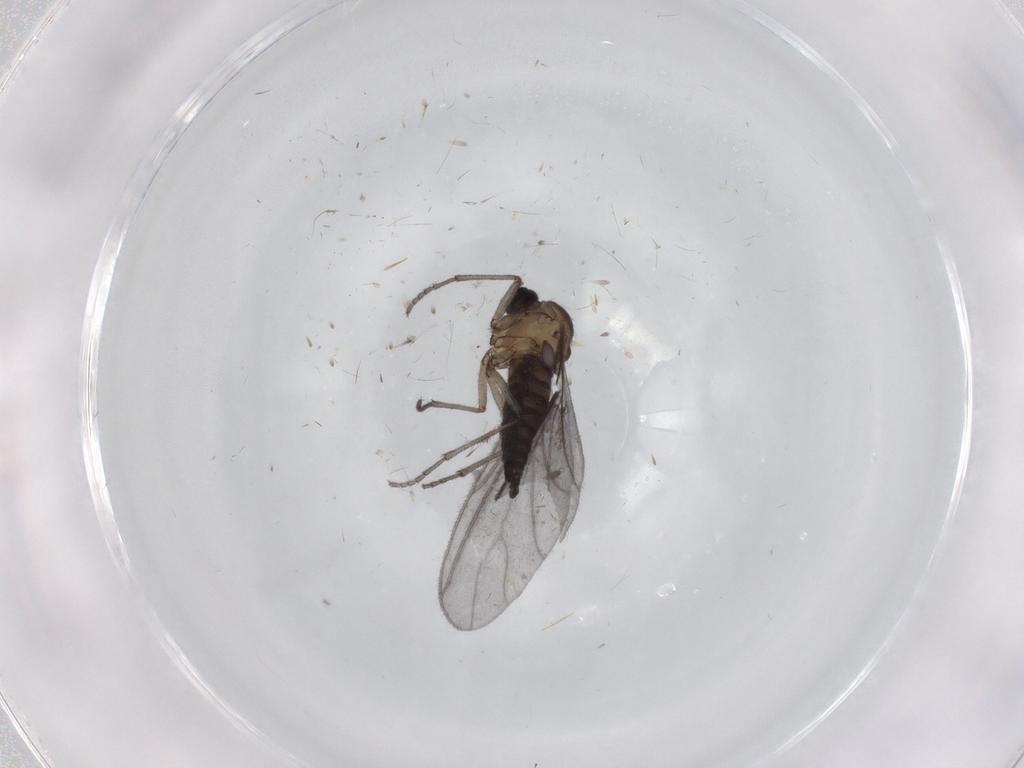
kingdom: Animalia
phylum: Arthropoda
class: Insecta
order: Diptera
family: Sciaridae
